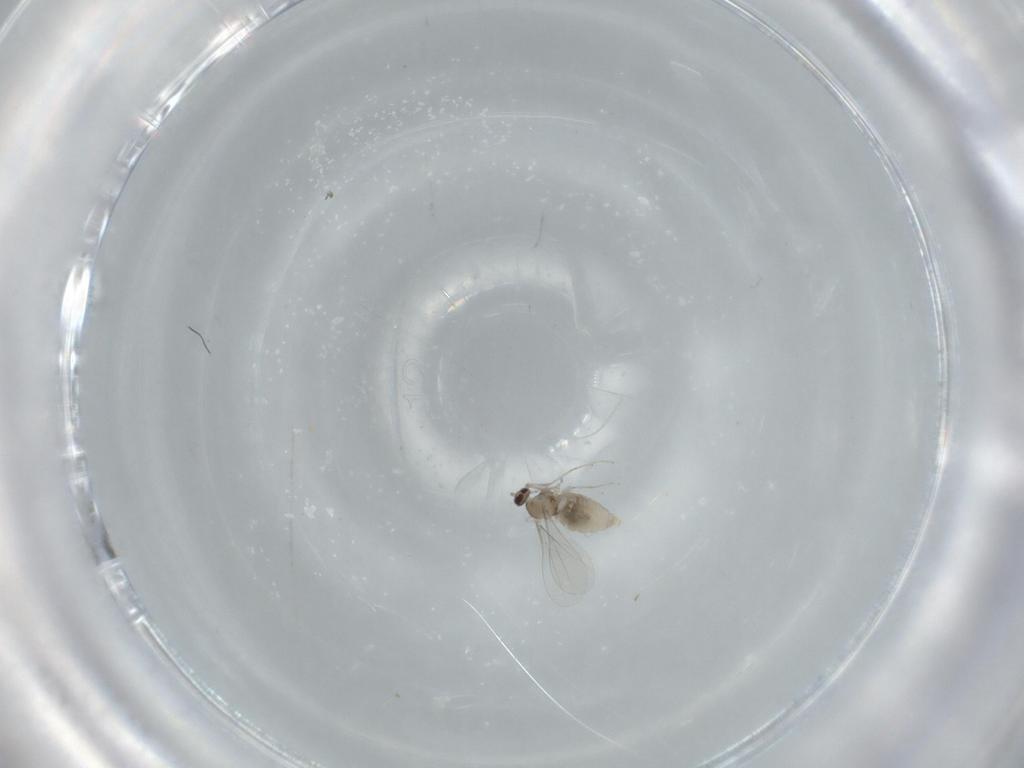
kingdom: Animalia
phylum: Arthropoda
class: Insecta
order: Diptera
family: Cecidomyiidae
